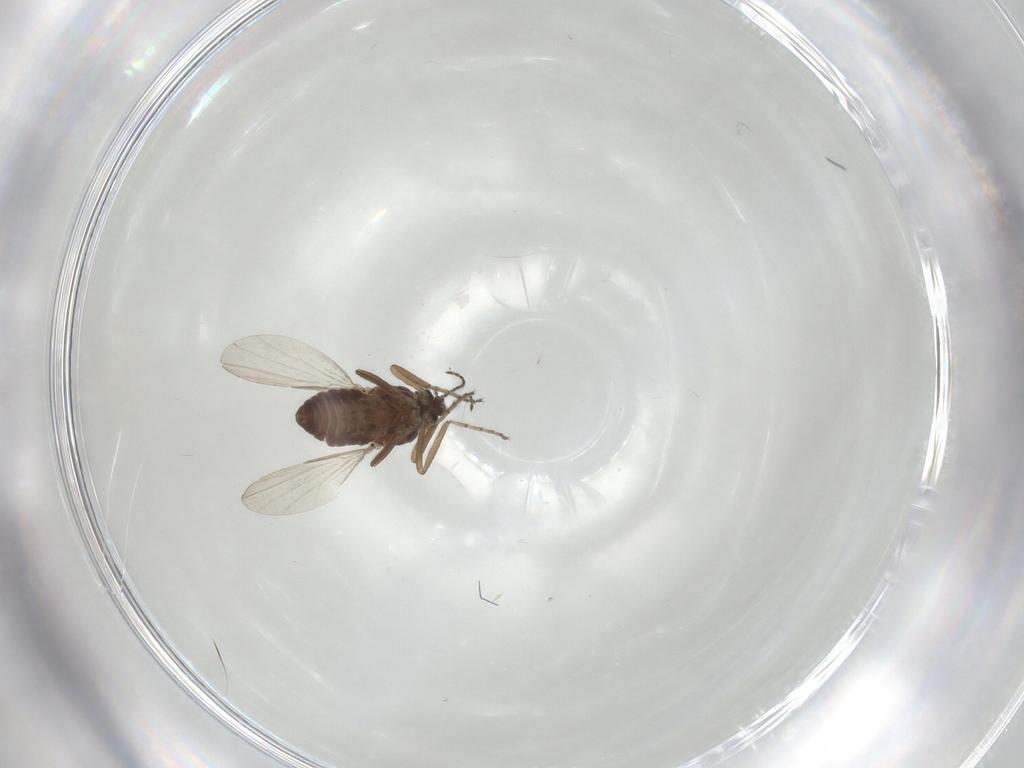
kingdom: Animalia
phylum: Arthropoda
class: Insecta
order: Diptera
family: Ceratopogonidae
